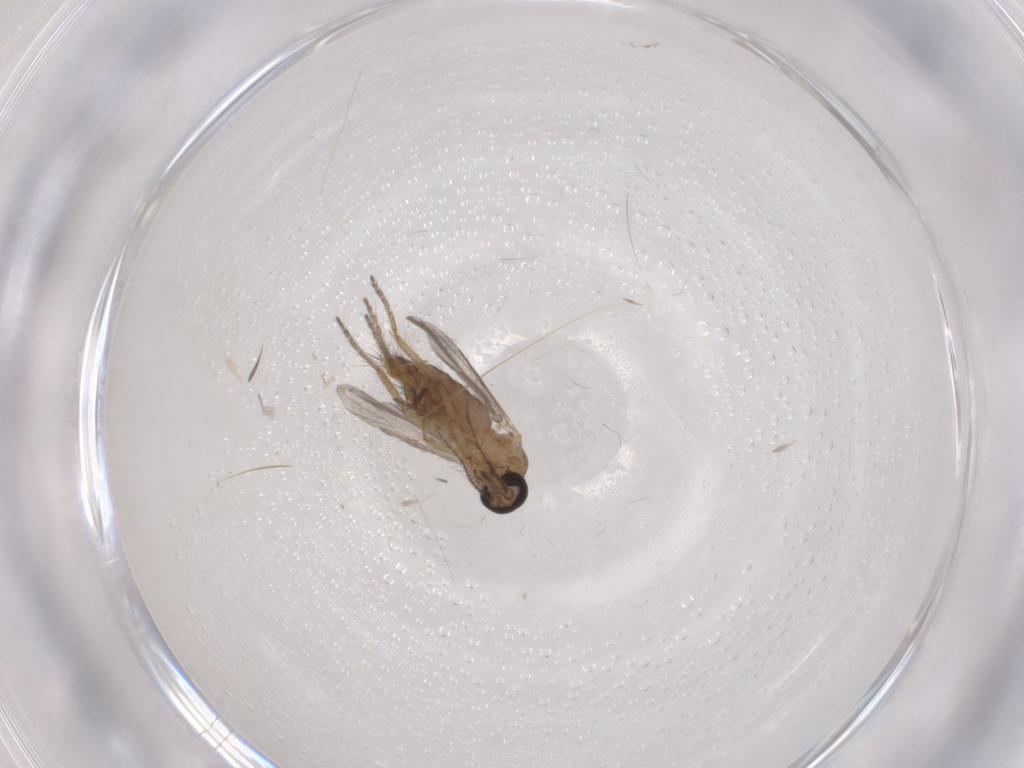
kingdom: Animalia
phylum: Arthropoda
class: Insecta
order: Diptera
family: Ceratopogonidae
